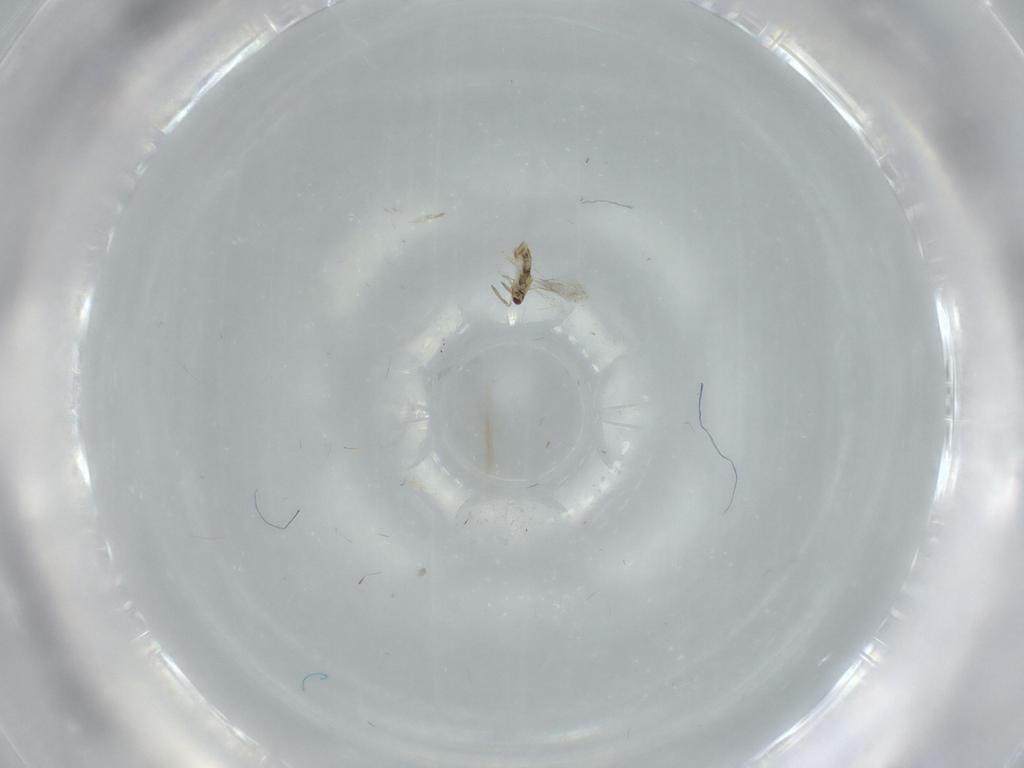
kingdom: Animalia
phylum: Arthropoda
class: Insecta
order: Hymenoptera
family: Aphelinidae
